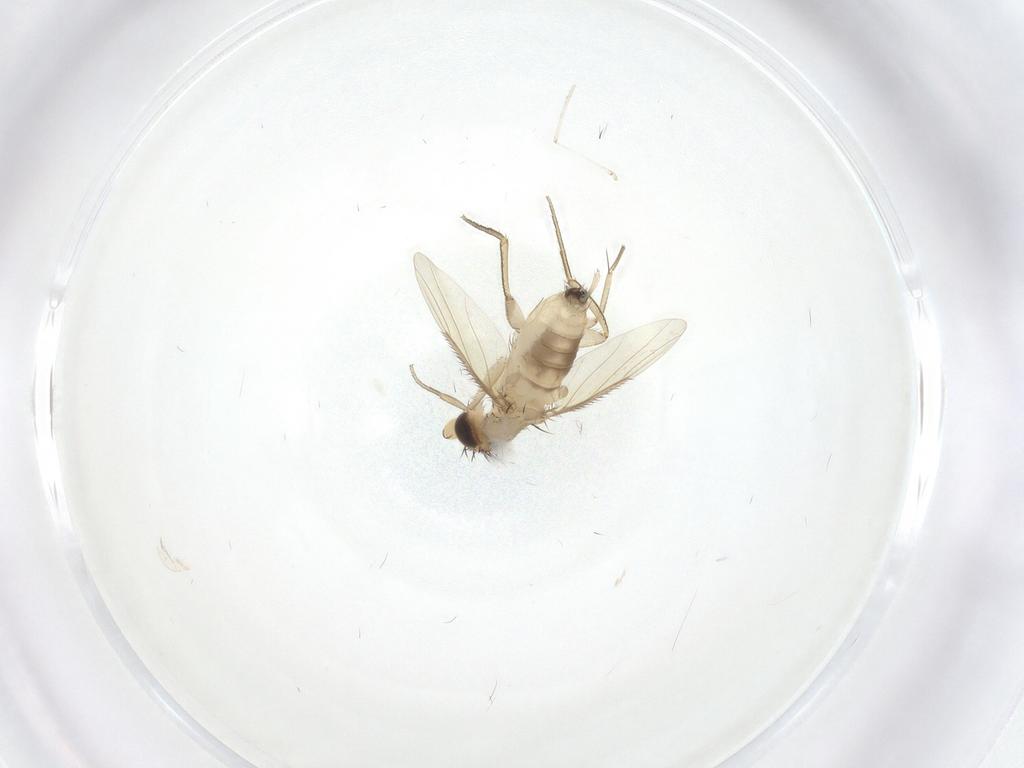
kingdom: Animalia
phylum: Arthropoda
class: Insecta
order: Diptera
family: Phoridae
